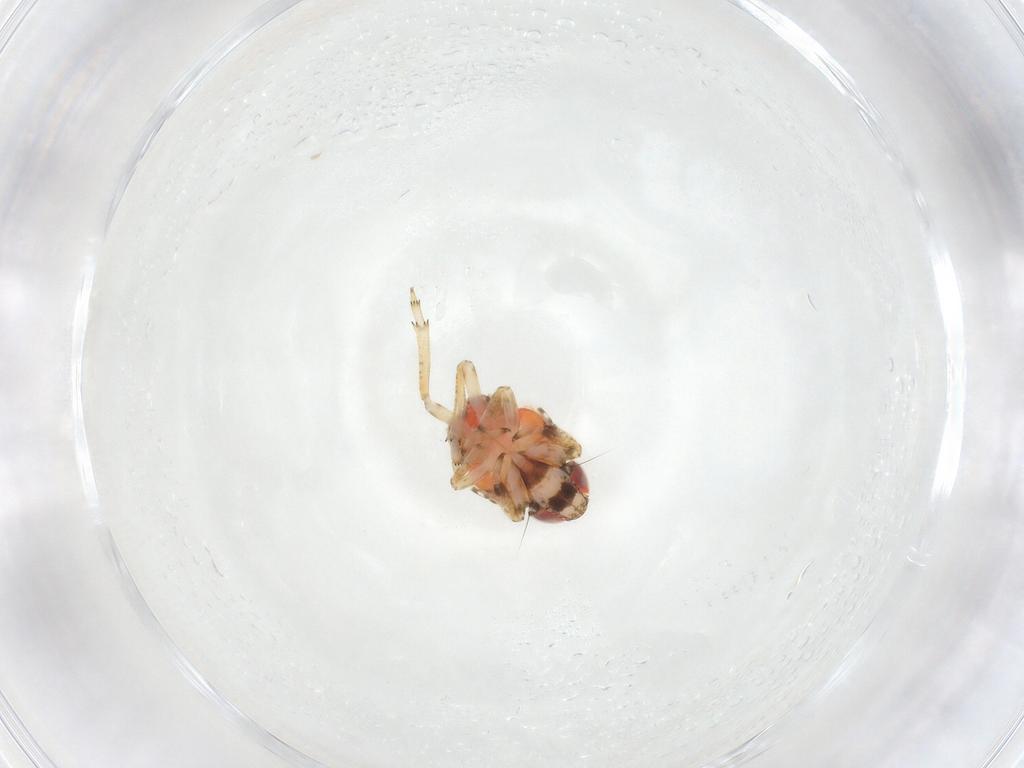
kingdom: Animalia
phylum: Arthropoda
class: Insecta
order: Hemiptera
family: Issidae
